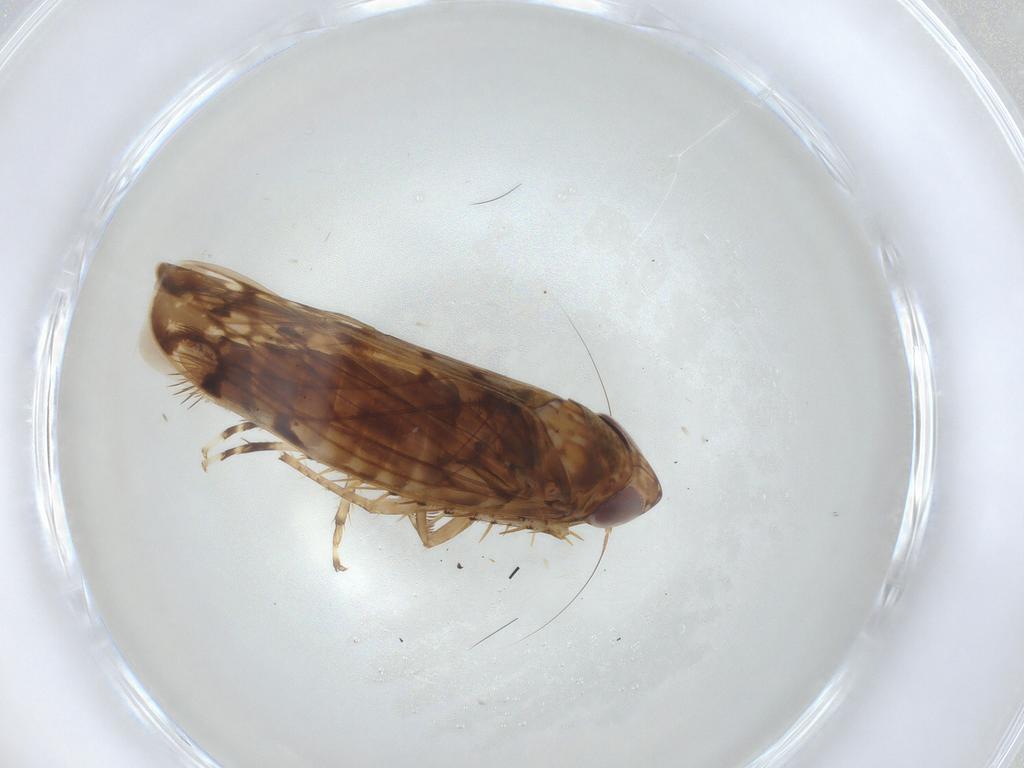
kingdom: Animalia
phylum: Arthropoda
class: Insecta
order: Hemiptera
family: Cicadellidae
